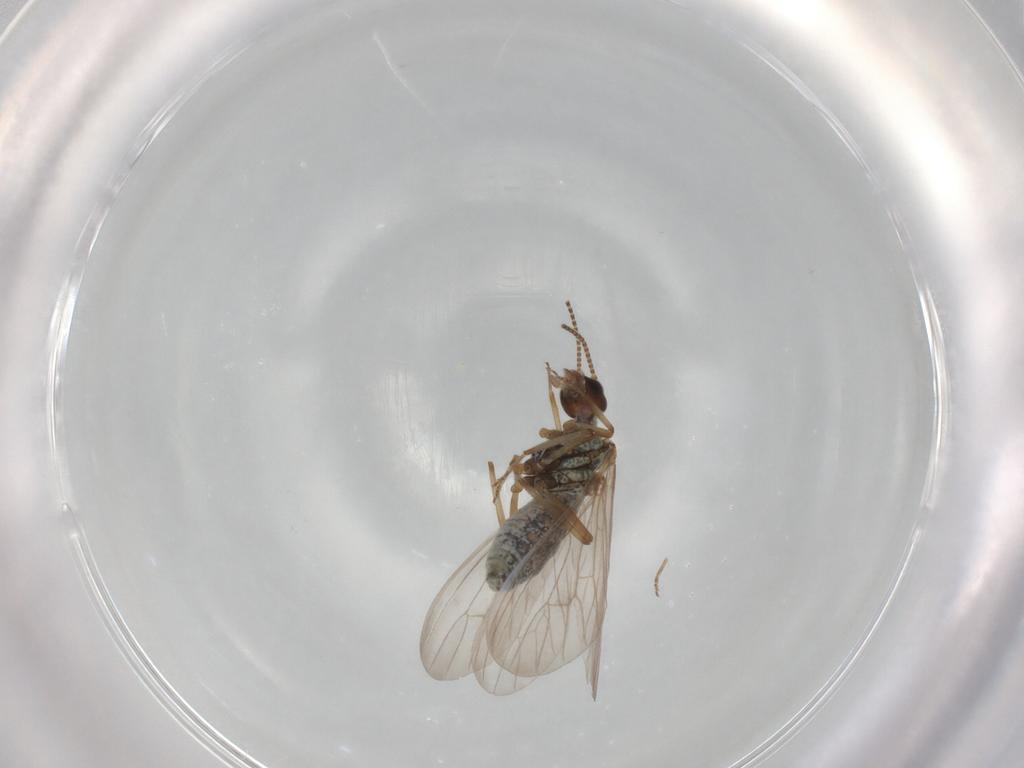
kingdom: Animalia
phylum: Arthropoda
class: Insecta
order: Neuroptera
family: Coniopterygidae
